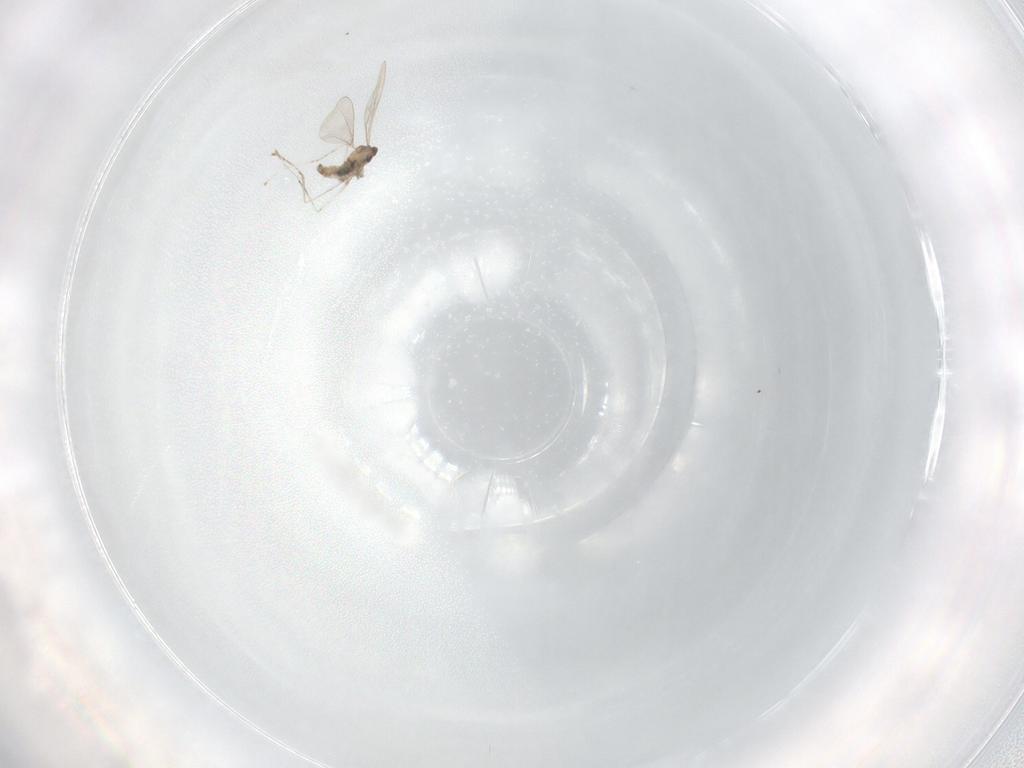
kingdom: Animalia
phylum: Arthropoda
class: Insecta
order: Diptera
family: Cecidomyiidae
